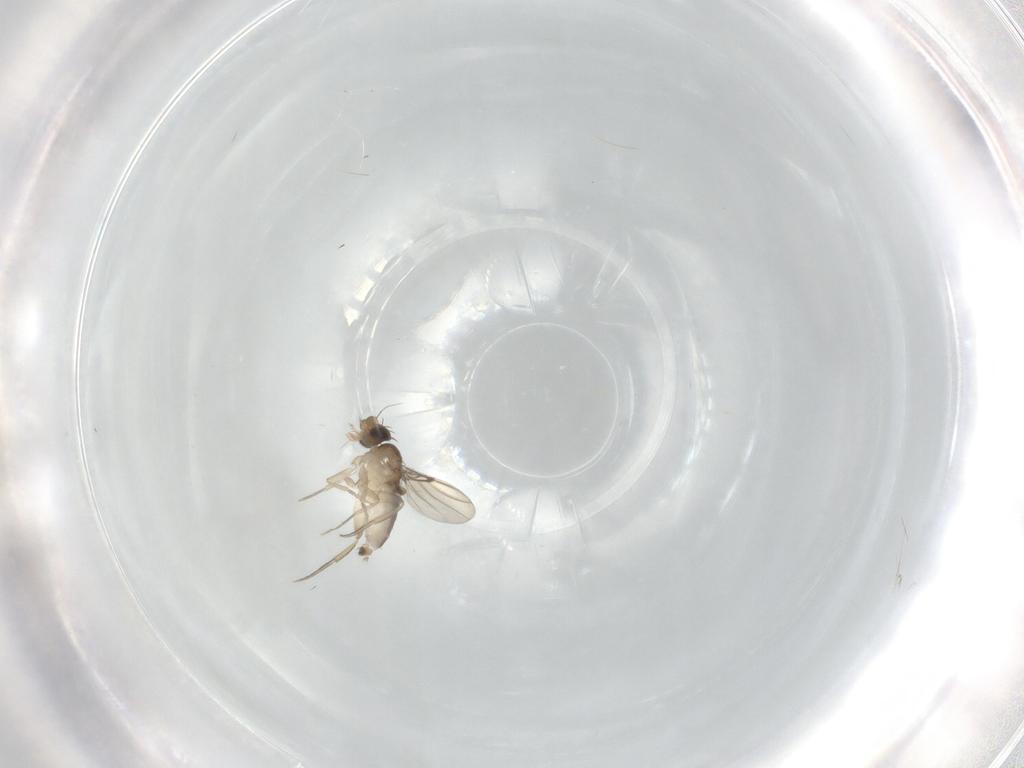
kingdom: Animalia
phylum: Arthropoda
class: Insecta
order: Diptera
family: Phoridae
